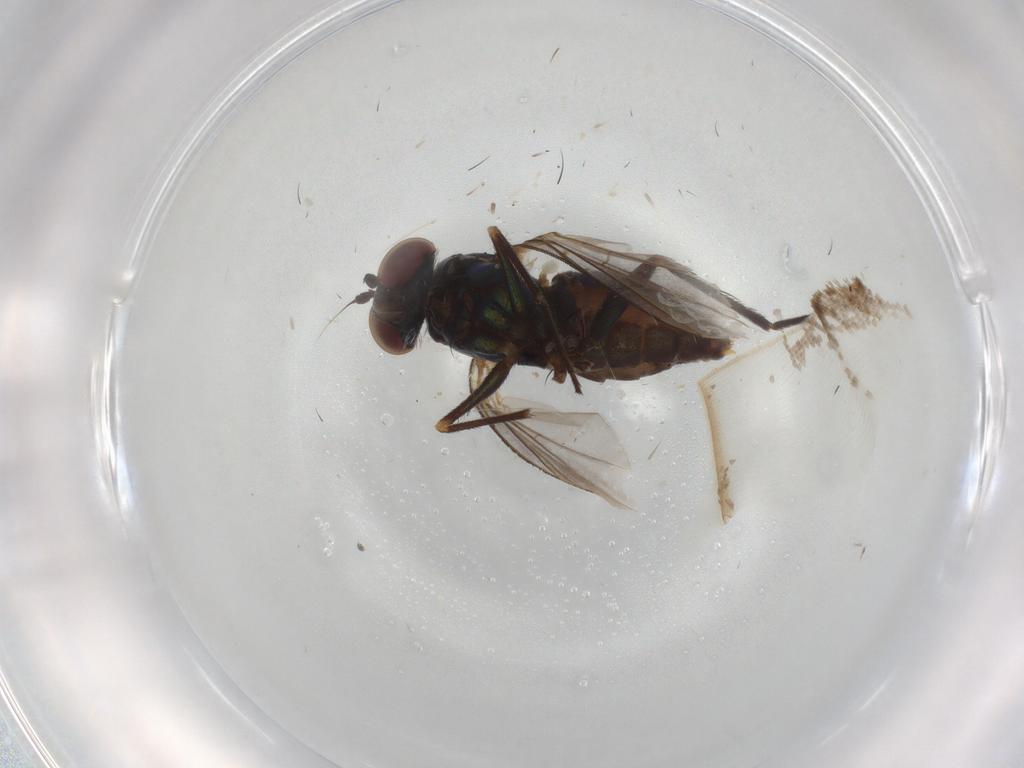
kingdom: Animalia
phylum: Arthropoda
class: Insecta
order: Diptera
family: Dolichopodidae
